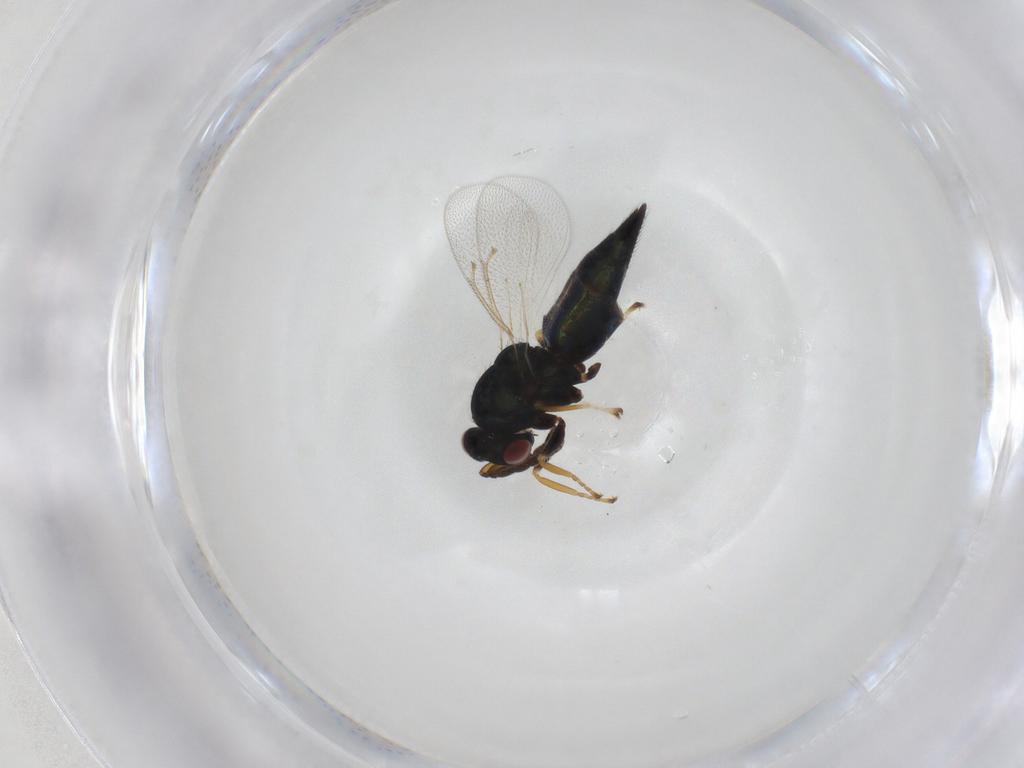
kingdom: Animalia
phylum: Arthropoda
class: Insecta
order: Hymenoptera
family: Eulophidae
